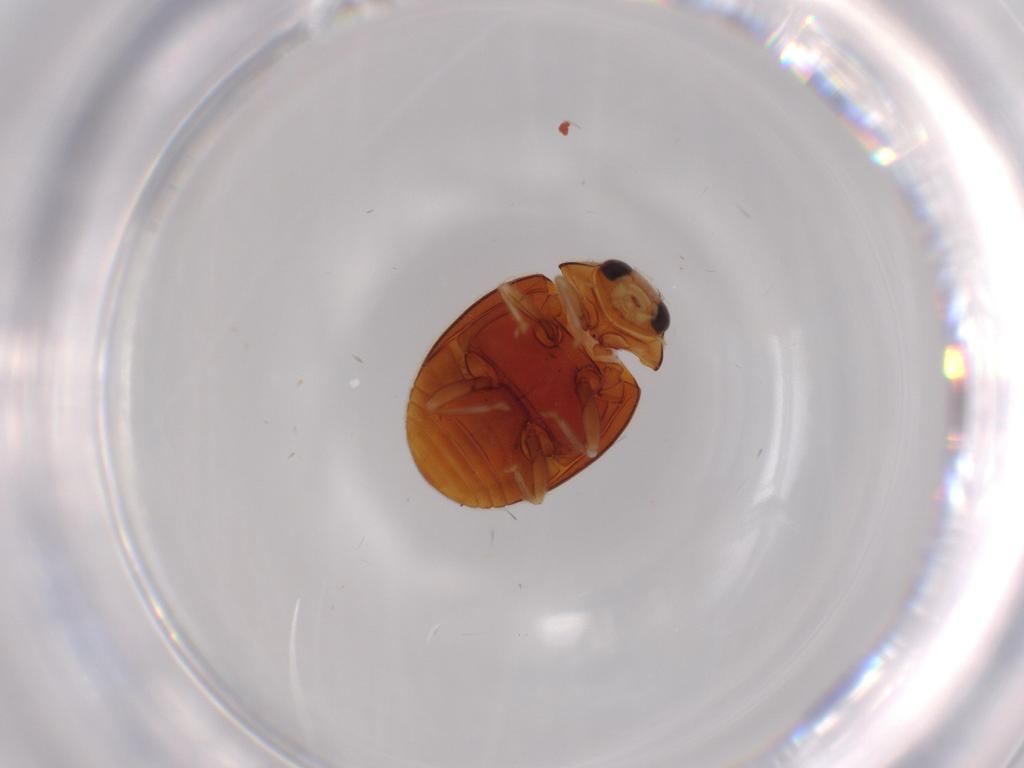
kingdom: Animalia
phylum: Arthropoda
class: Insecta
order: Coleoptera
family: Coccinellidae
